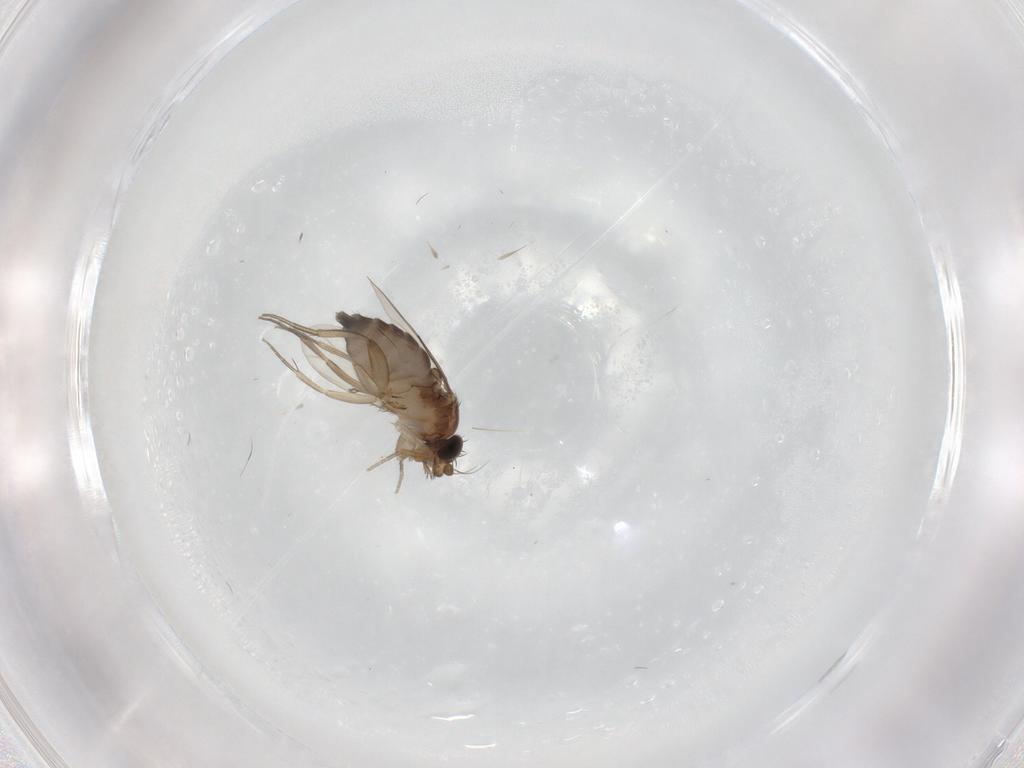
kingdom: Animalia
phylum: Arthropoda
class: Insecta
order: Diptera
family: Phoridae
